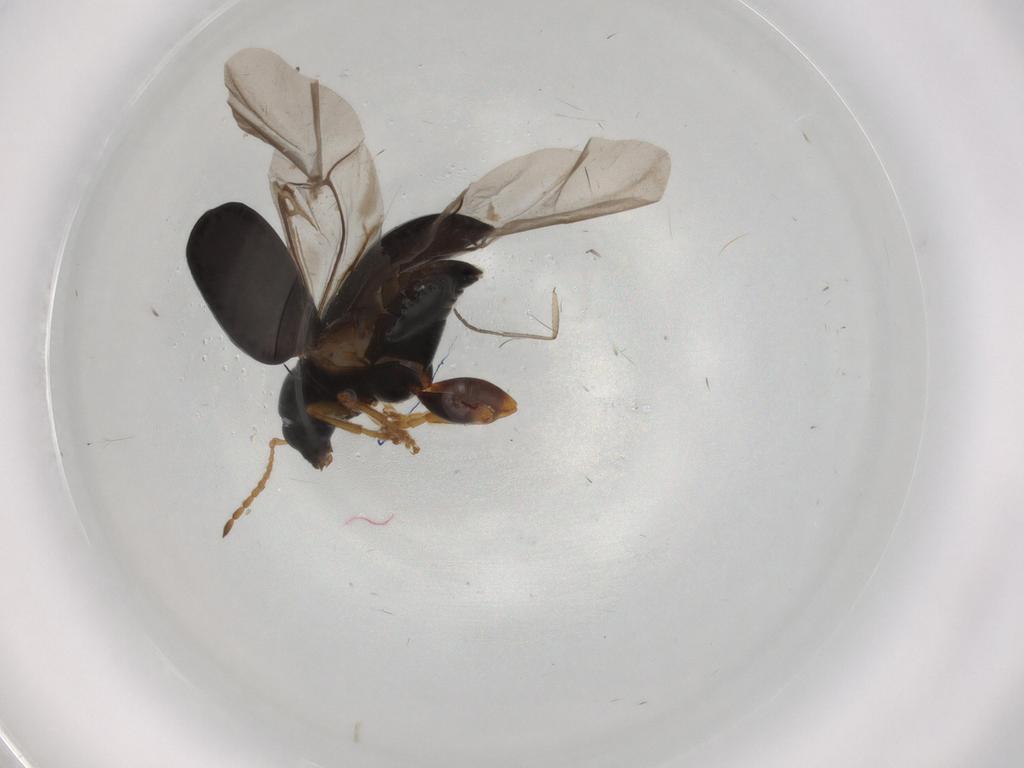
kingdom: Animalia
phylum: Arthropoda
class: Insecta
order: Coleoptera
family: Chrysomelidae
